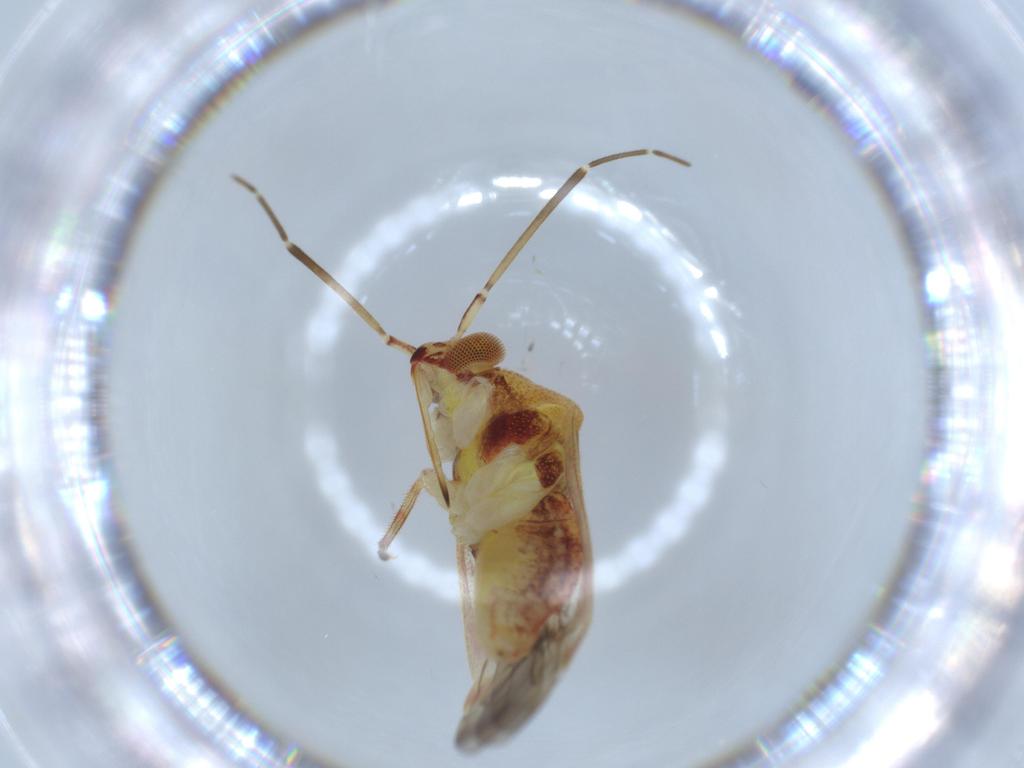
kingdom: Animalia
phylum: Arthropoda
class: Insecta
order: Hemiptera
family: Miridae
